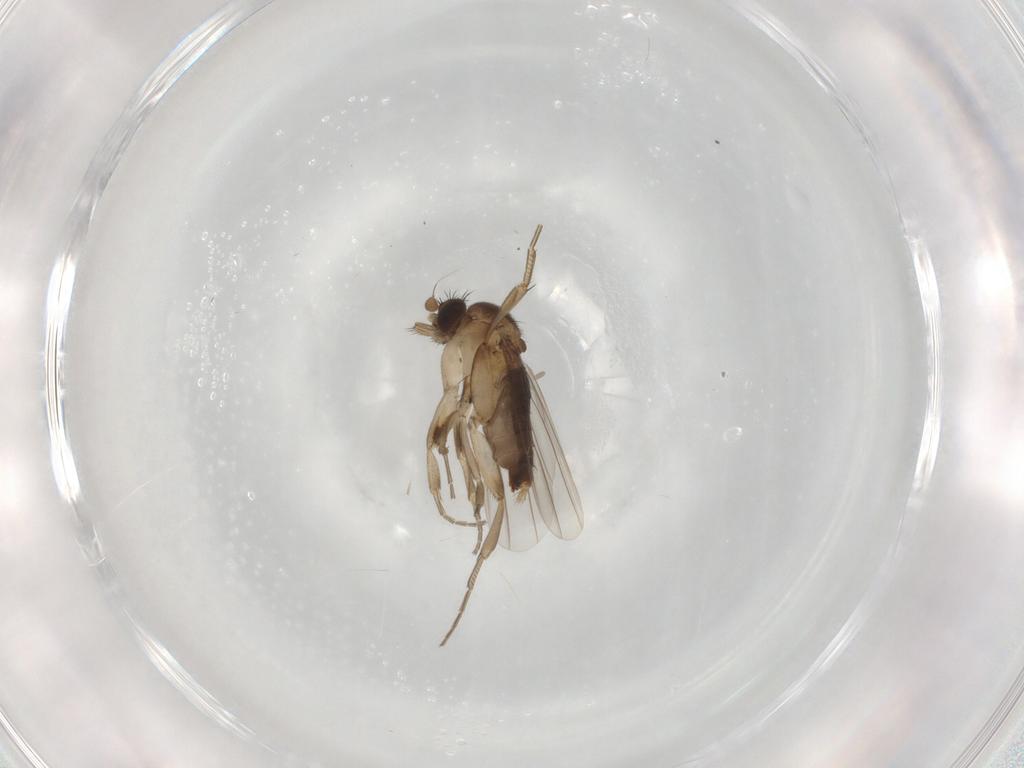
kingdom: Animalia
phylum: Arthropoda
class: Insecta
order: Diptera
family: Phoridae
